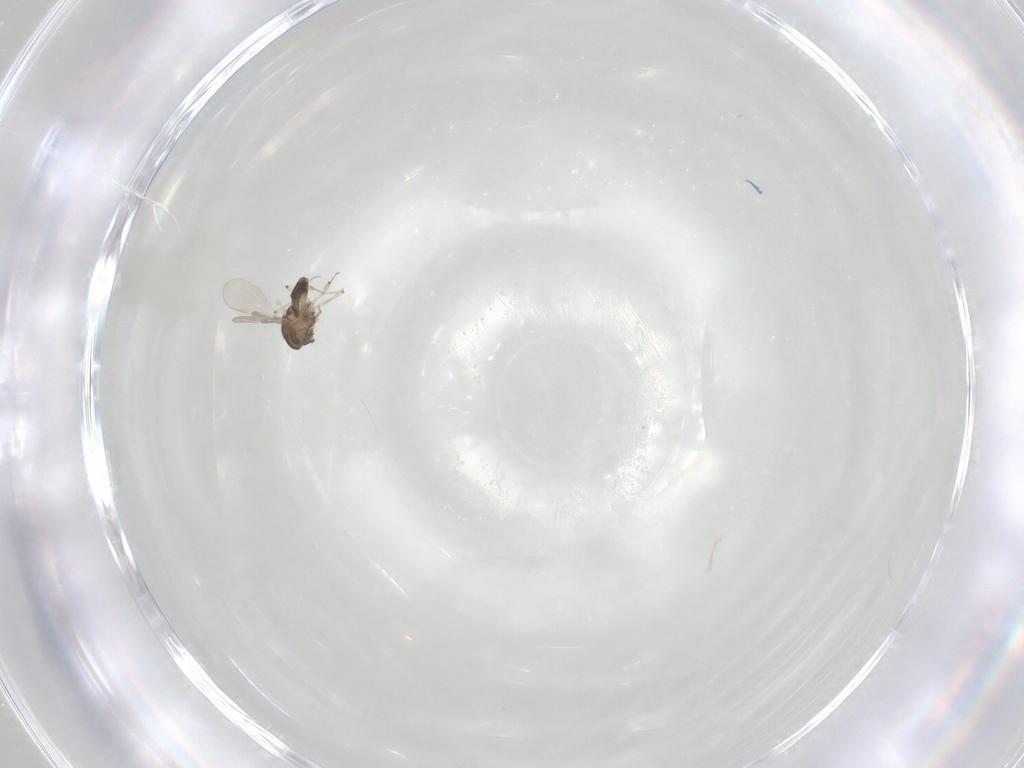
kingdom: Animalia
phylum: Arthropoda
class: Insecta
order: Diptera
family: Chironomidae
